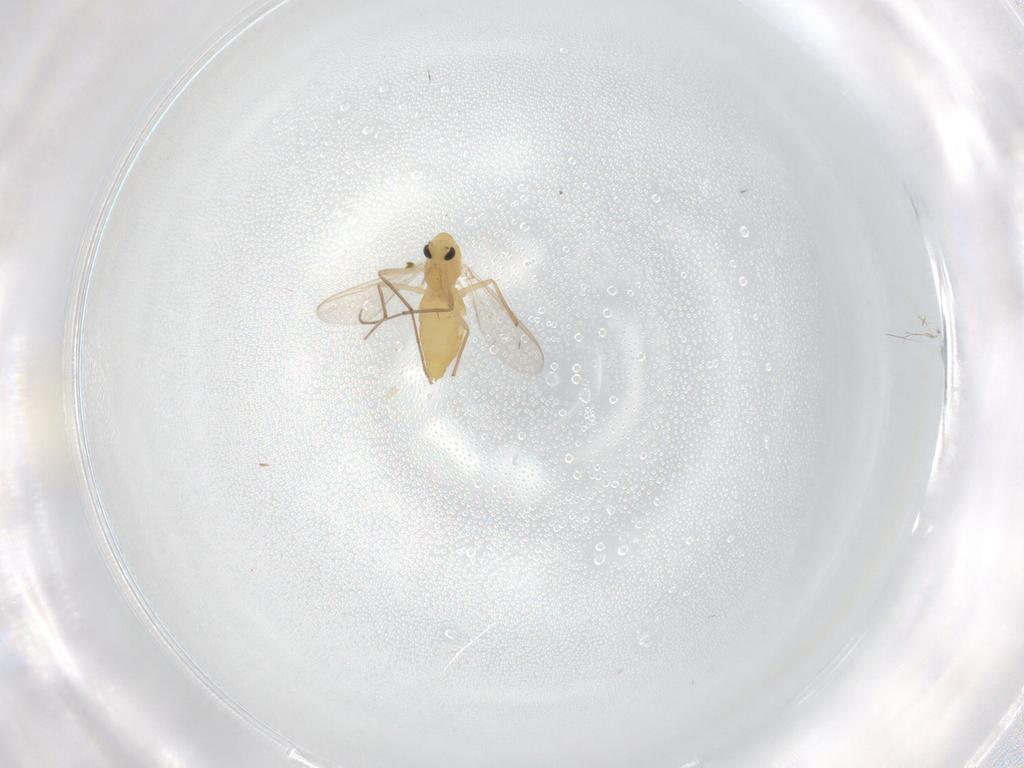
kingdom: Animalia
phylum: Arthropoda
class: Insecta
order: Diptera
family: Chironomidae
